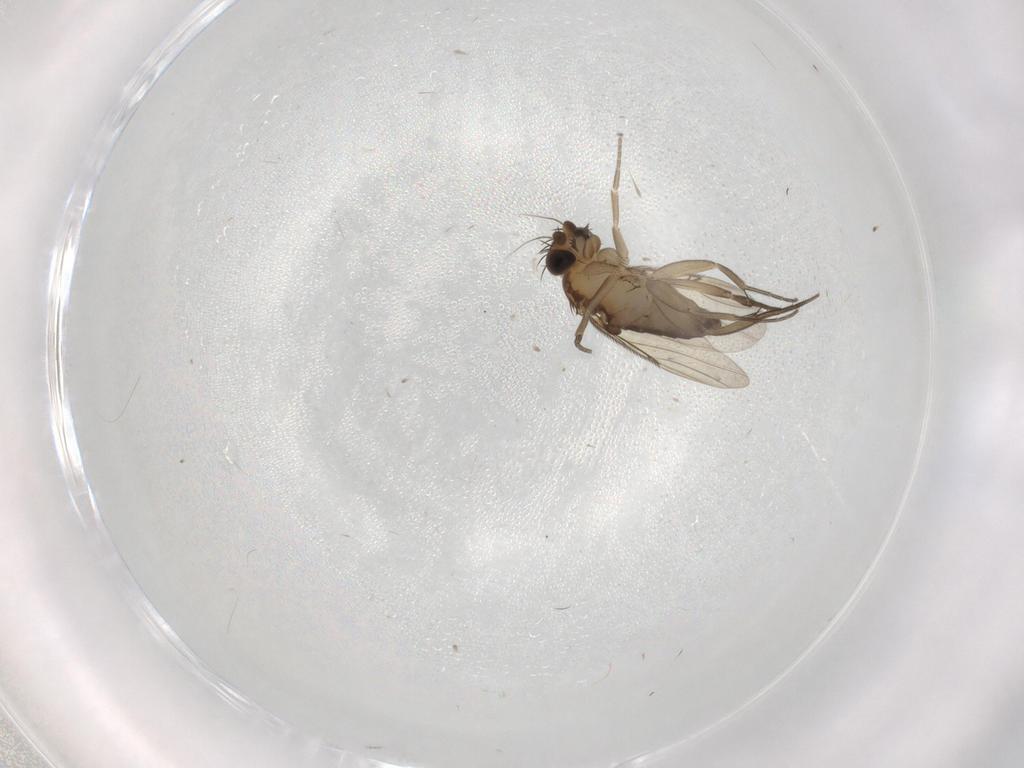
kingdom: Animalia
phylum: Arthropoda
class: Insecta
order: Diptera
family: Phoridae
